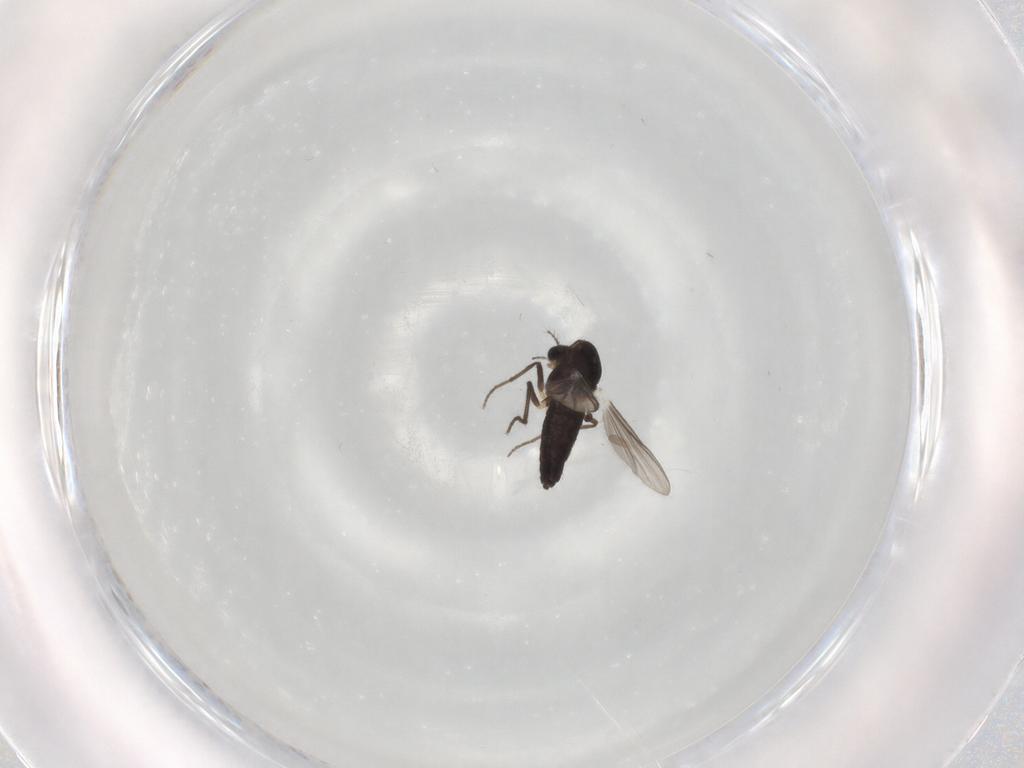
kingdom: Animalia
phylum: Arthropoda
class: Insecta
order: Diptera
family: Chironomidae
